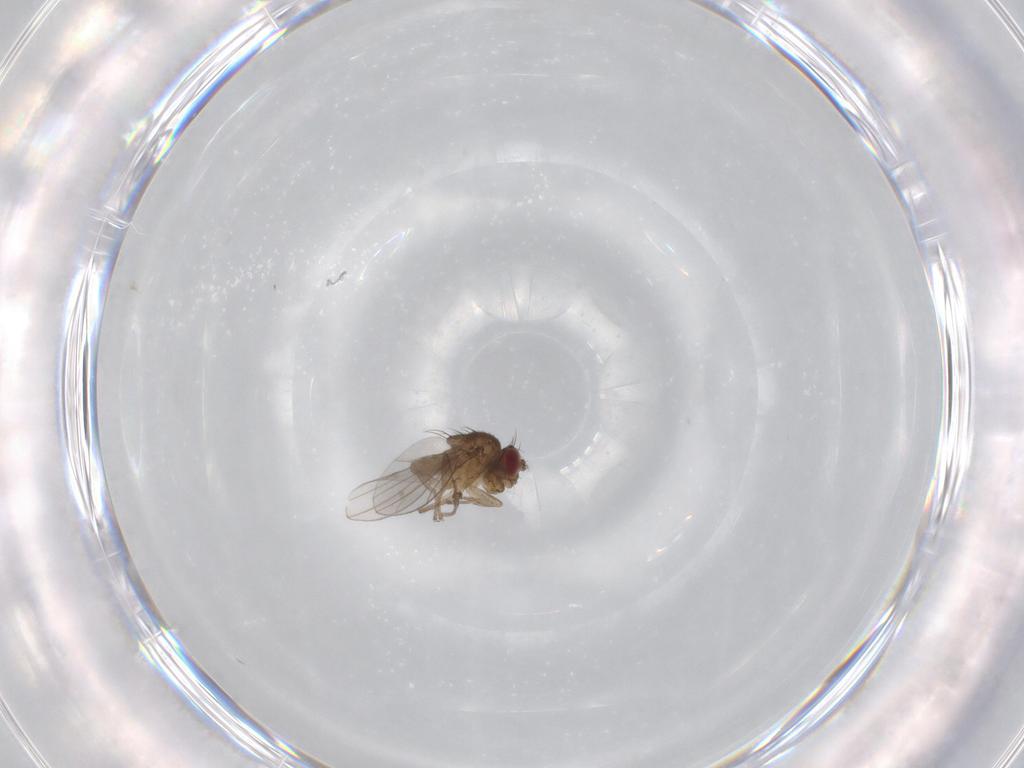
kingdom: Animalia
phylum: Arthropoda
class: Insecta
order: Diptera
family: Ephydridae
